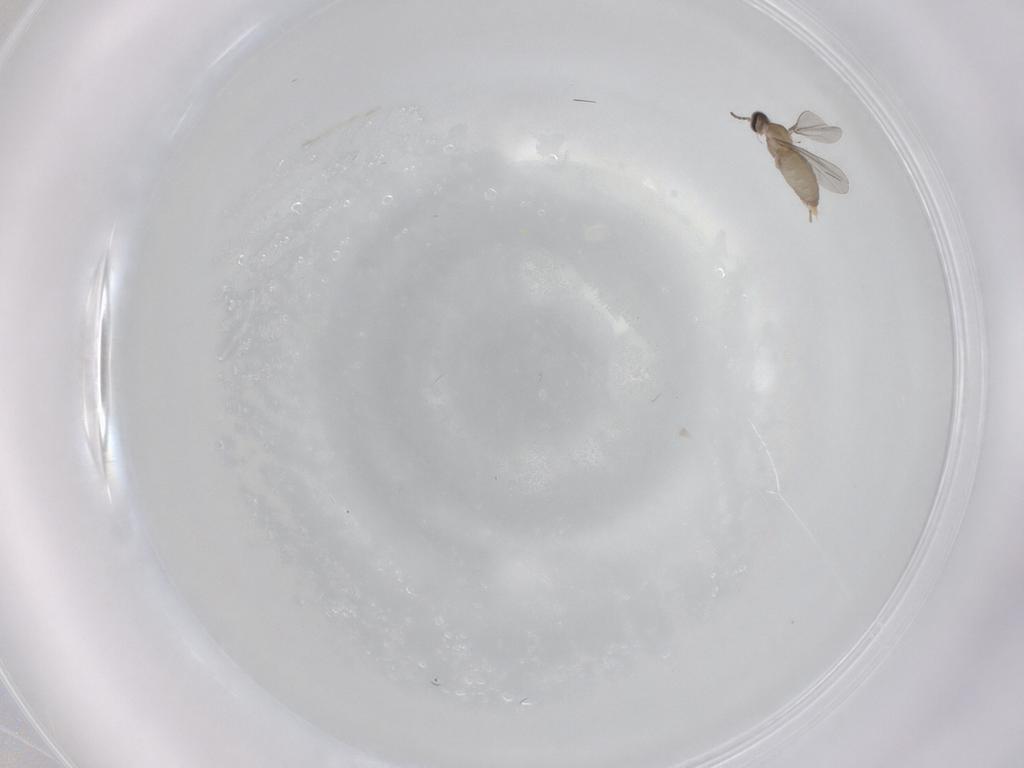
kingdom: Animalia
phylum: Arthropoda
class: Insecta
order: Diptera
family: Cecidomyiidae
